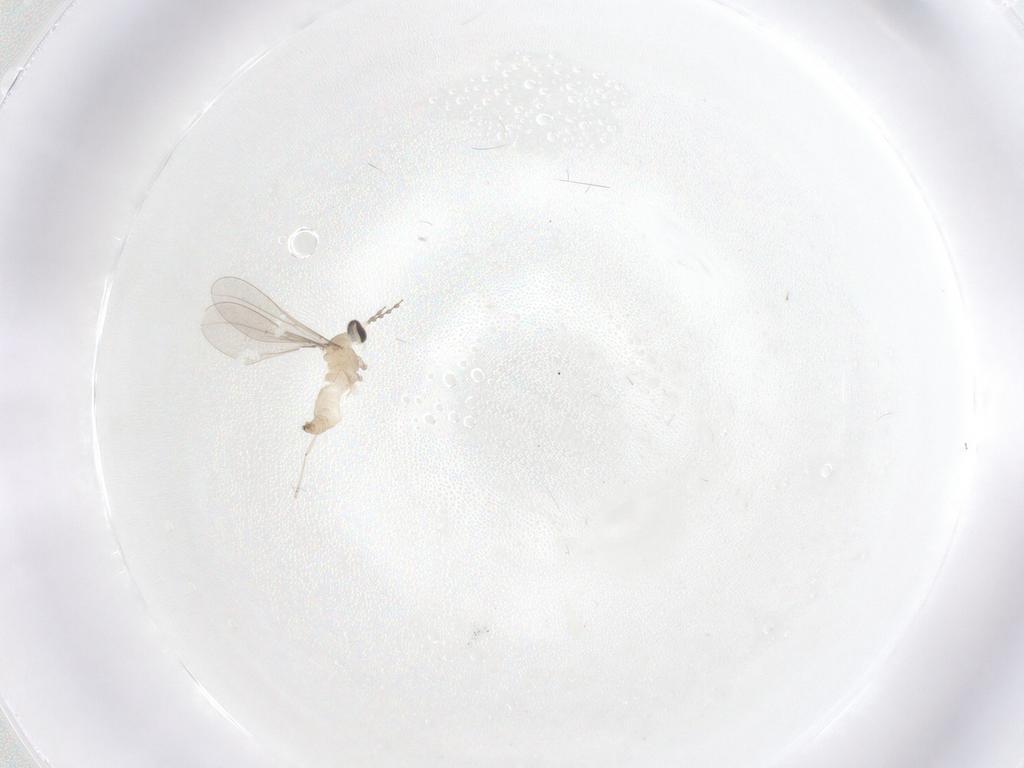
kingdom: Animalia
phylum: Arthropoda
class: Insecta
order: Diptera
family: Cecidomyiidae
